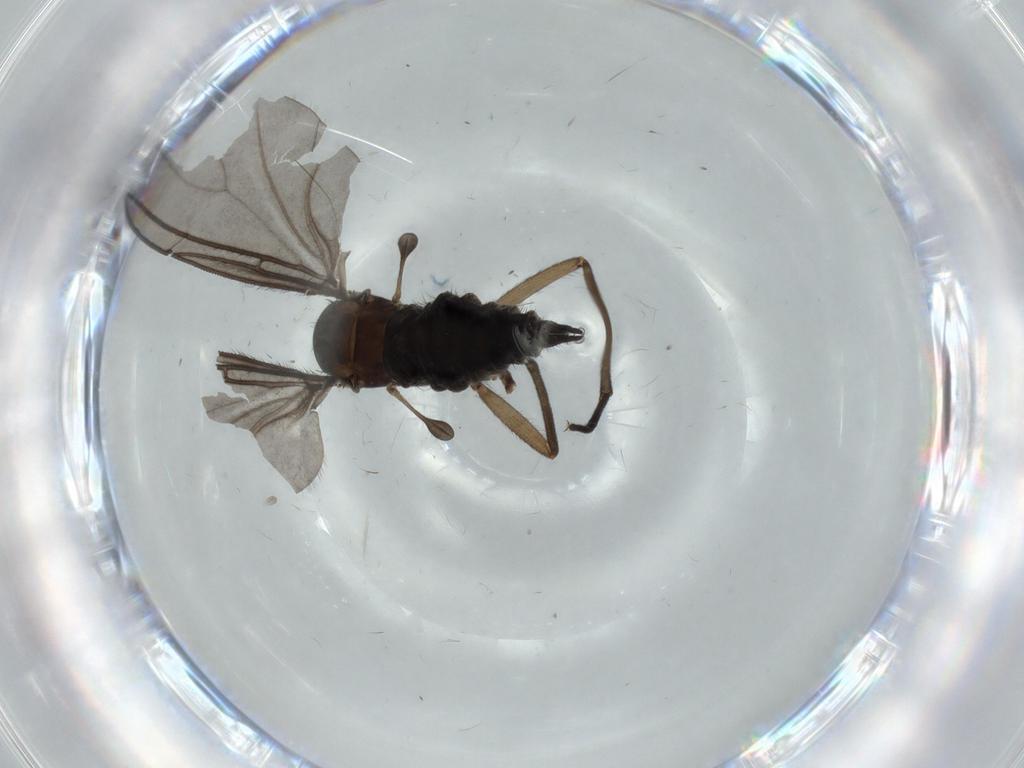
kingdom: Animalia
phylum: Arthropoda
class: Insecta
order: Diptera
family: Sciaridae
